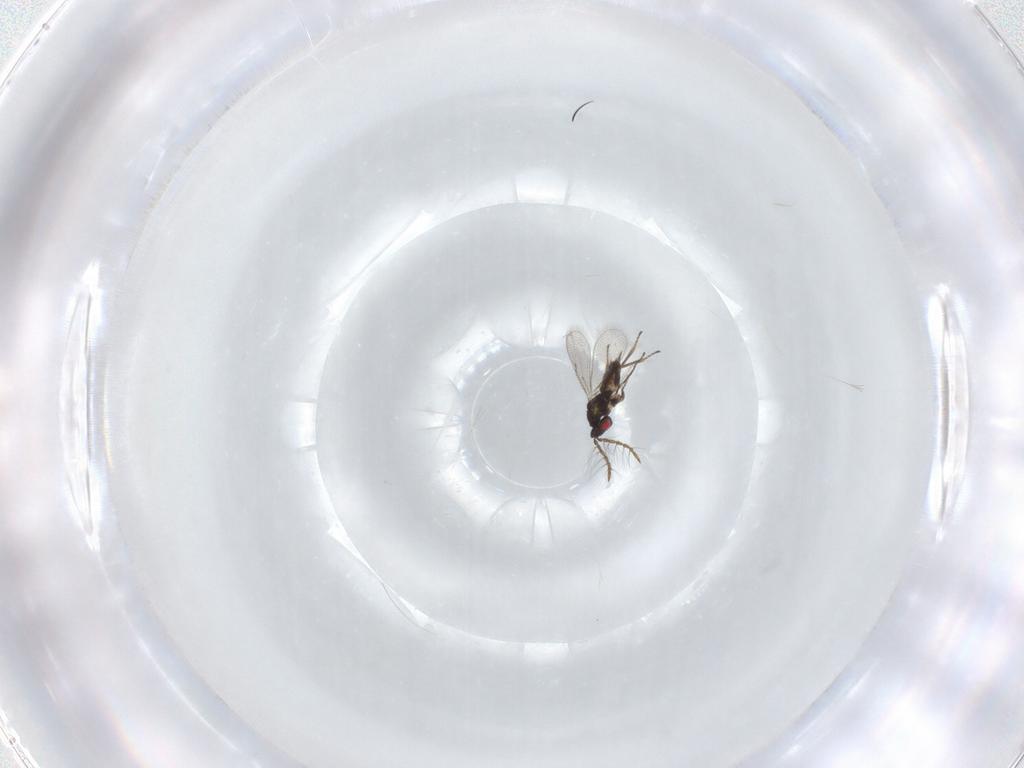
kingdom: Animalia
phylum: Arthropoda
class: Insecta
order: Hymenoptera
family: Eulophidae
